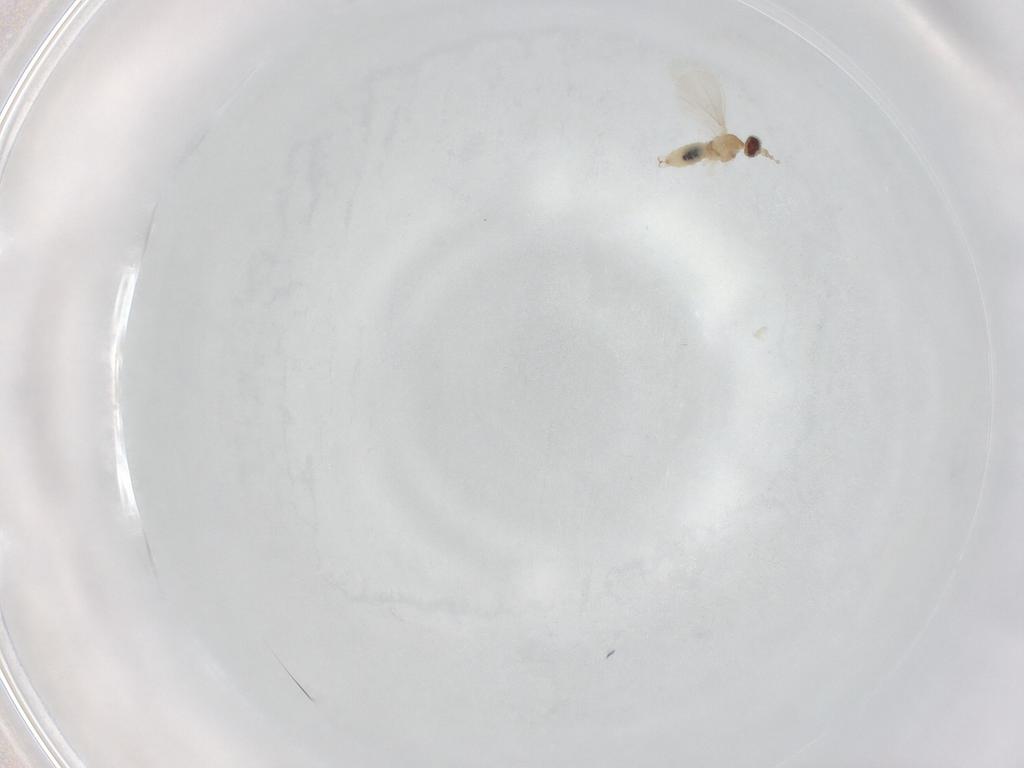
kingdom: Animalia
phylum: Arthropoda
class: Insecta
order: Diptera
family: Cecidomyiidae
